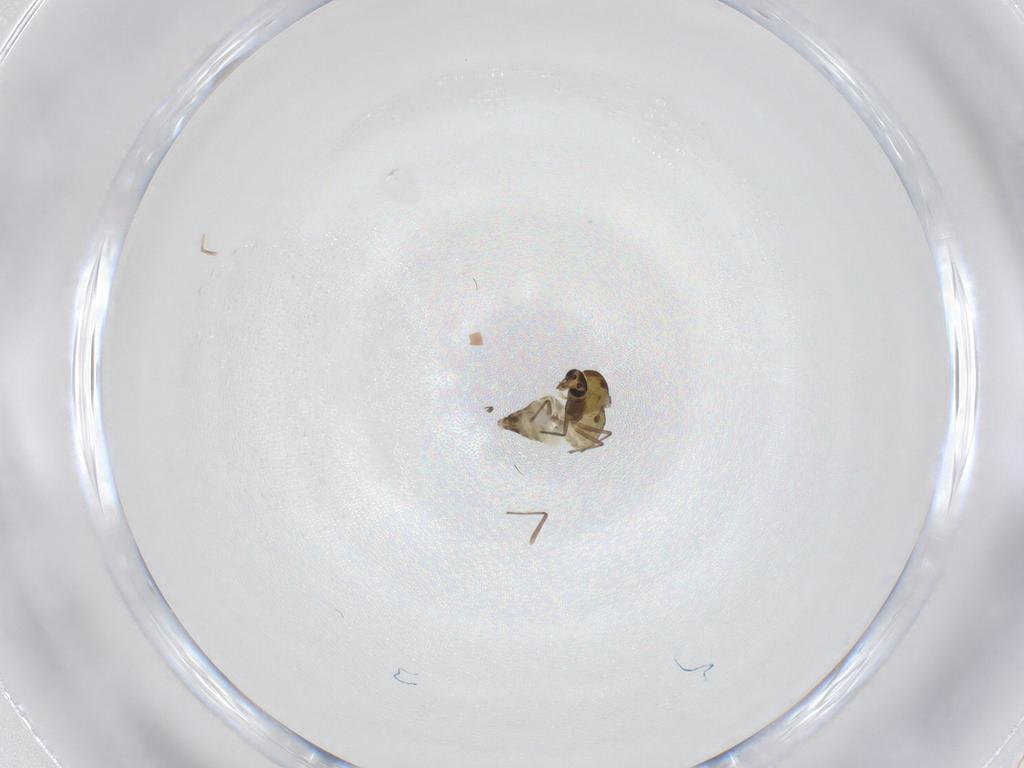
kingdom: Animalia
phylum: Arthropoda
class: Insecta
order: Diptera
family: Chironomidae
